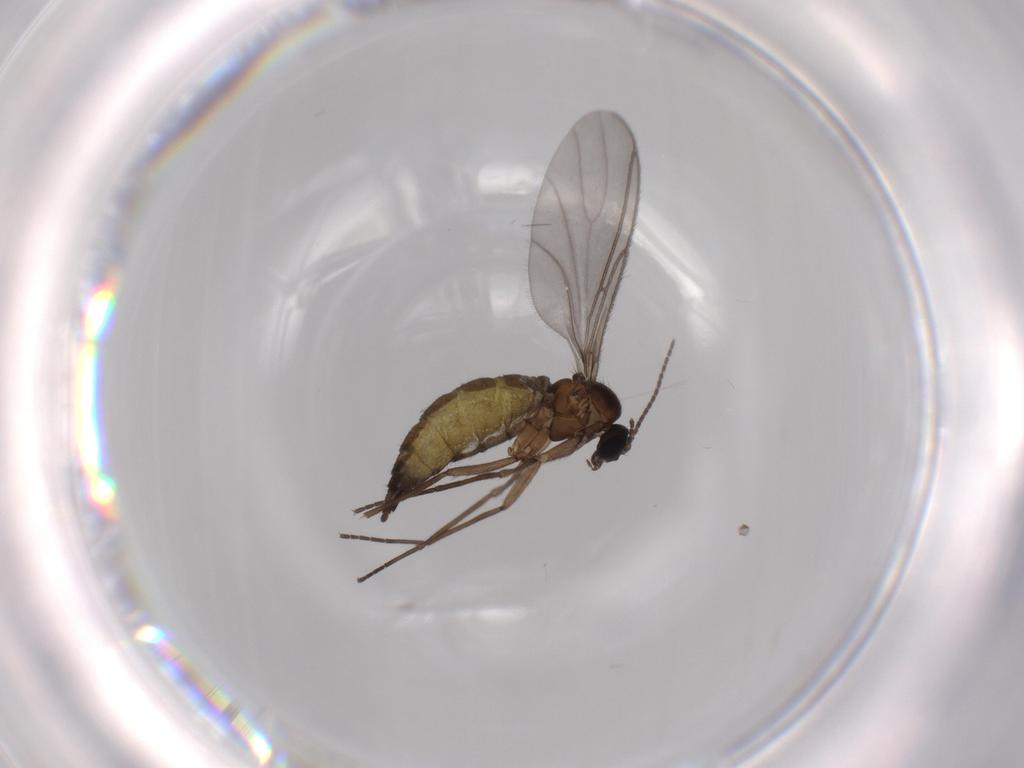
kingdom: Animalia
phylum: Arthropoda
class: Insecta
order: Diptera
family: Sciaridae
